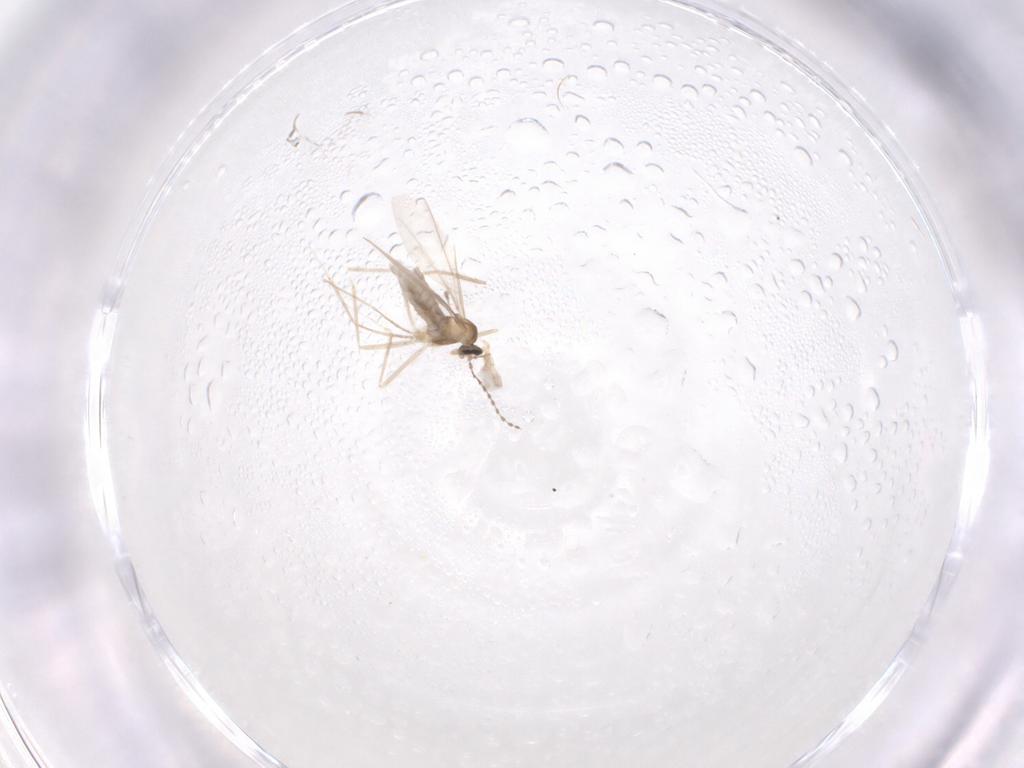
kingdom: Animalia
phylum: Arthropoda
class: Insecta
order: Diptera
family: Cecidomyiidae
